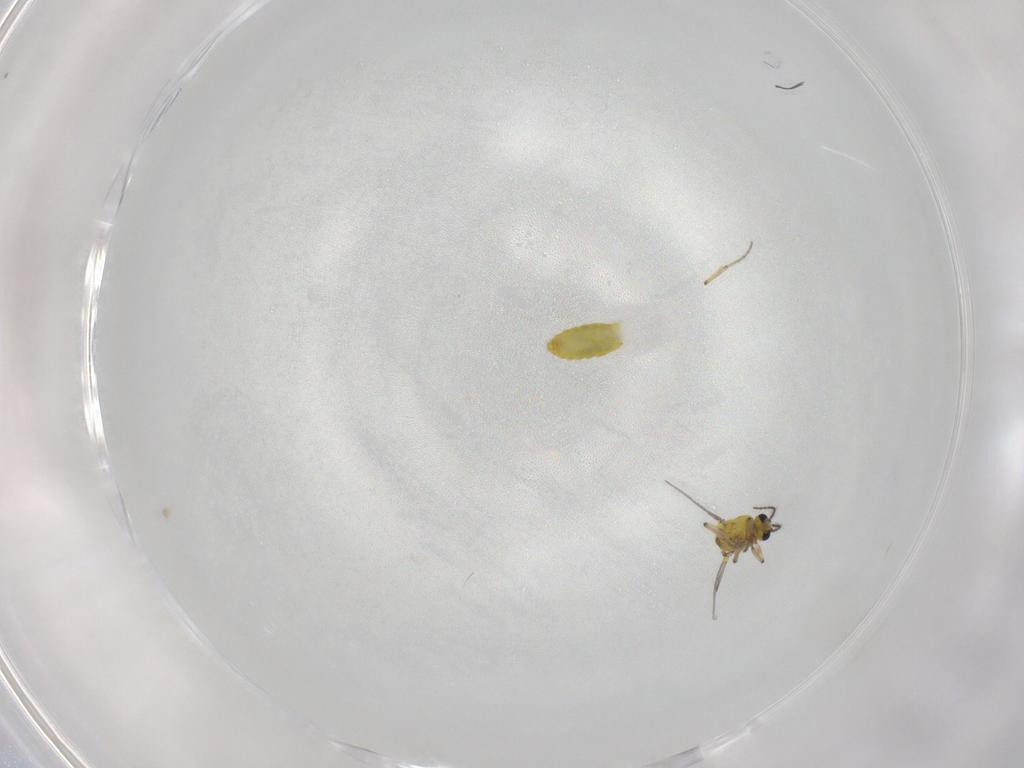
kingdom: Animalia
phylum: Arthropoda
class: Insecta
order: Diptera
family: Ceratopogonidae
